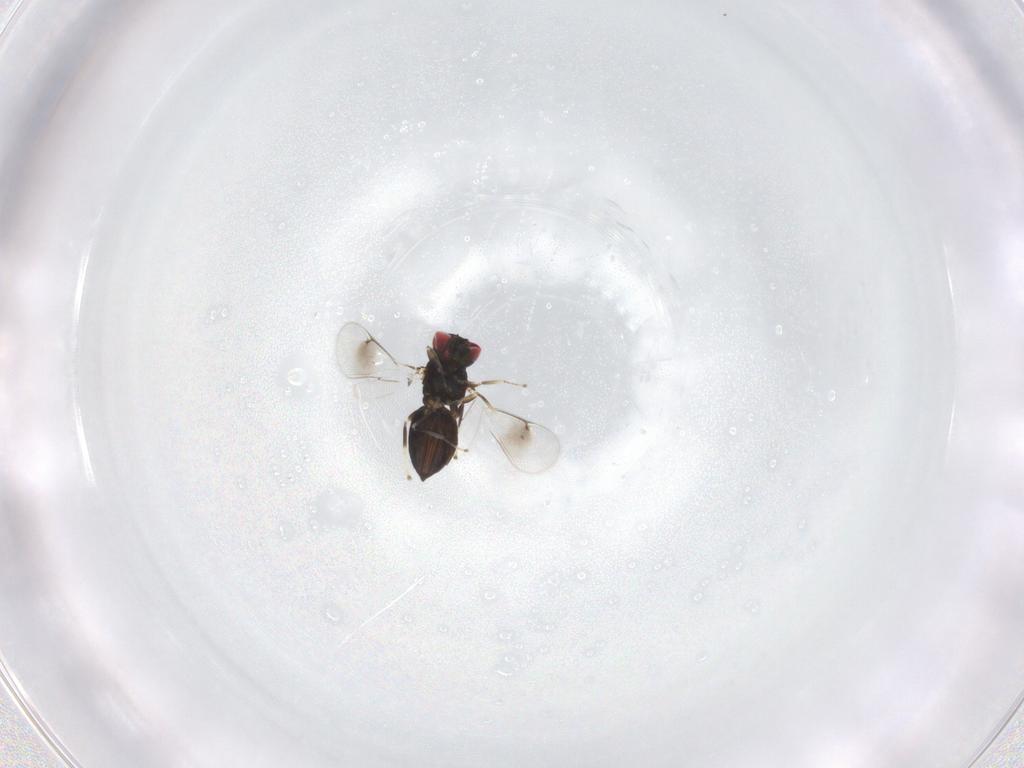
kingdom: Animalia
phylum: Arthropoda
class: Insecta
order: Hymenoptera
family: Eulophidae
